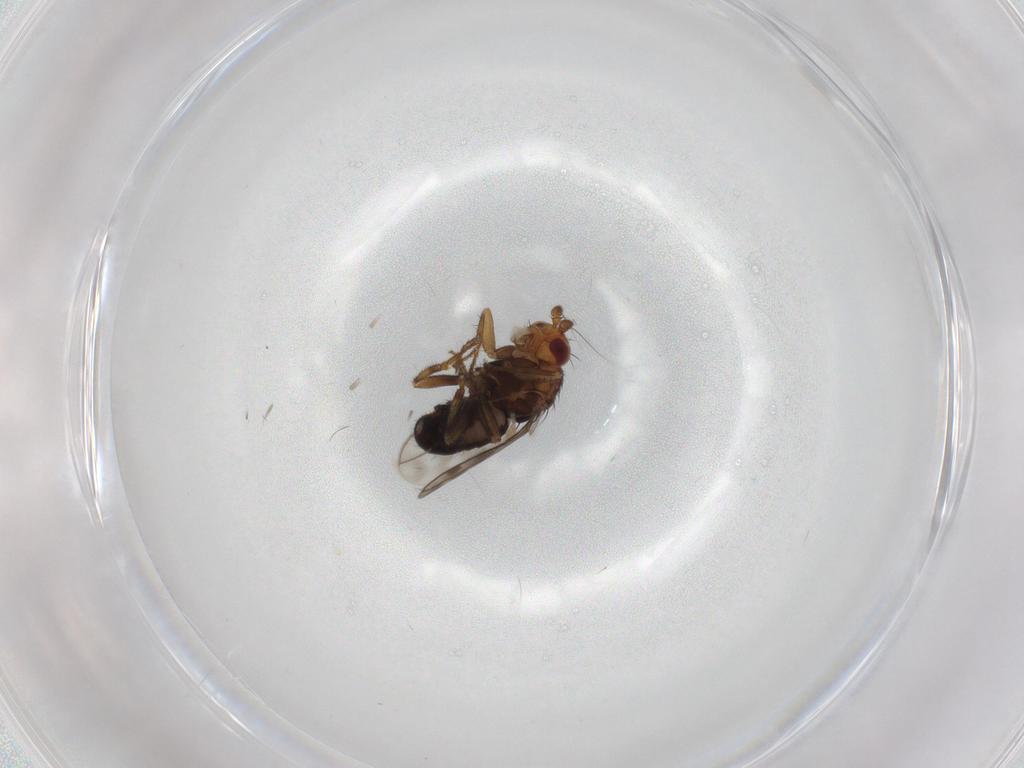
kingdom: Animalia
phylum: Arthropoda
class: Insecta
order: Diptera
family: Sphaeroceridae
